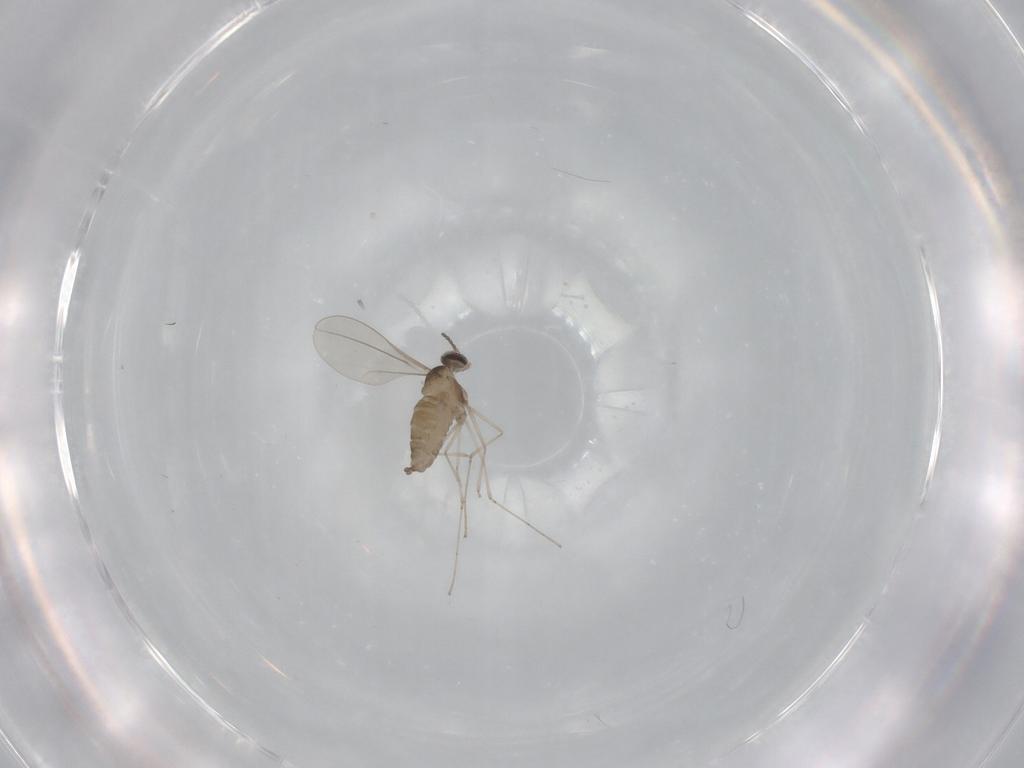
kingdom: Animalia
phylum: Arthropoda
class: Insecta
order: Diptera
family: Cecidomyiidae
